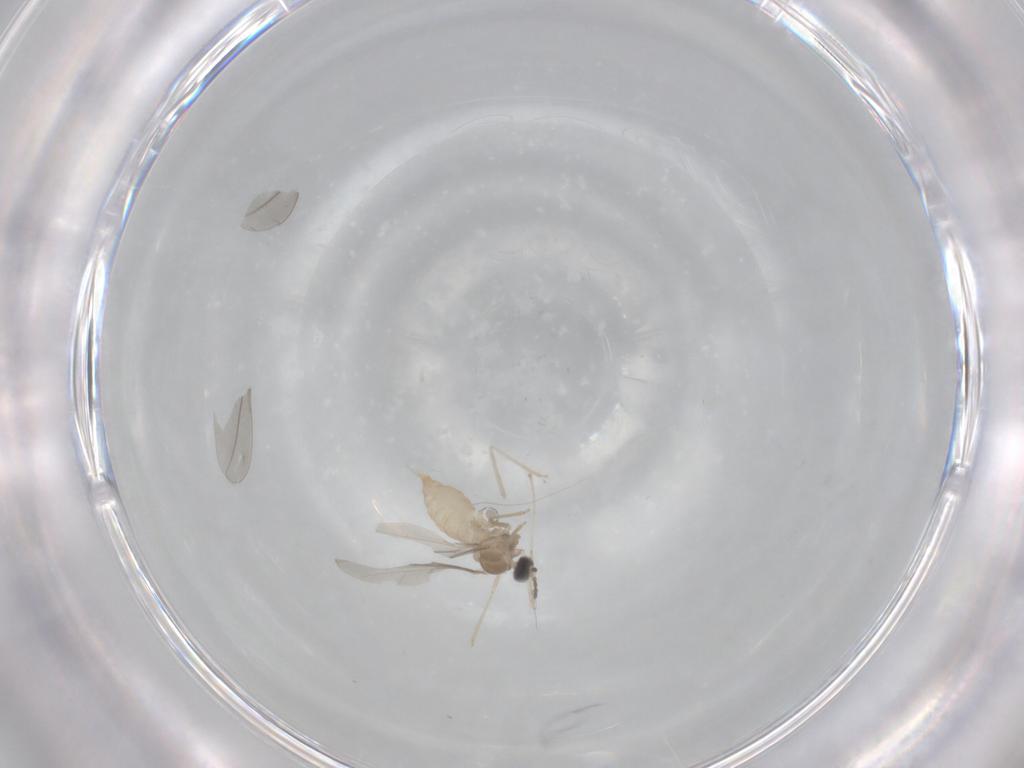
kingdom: Animalia
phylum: Arthropoda
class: Insecta
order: Diptera
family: Cecidomyiidae
